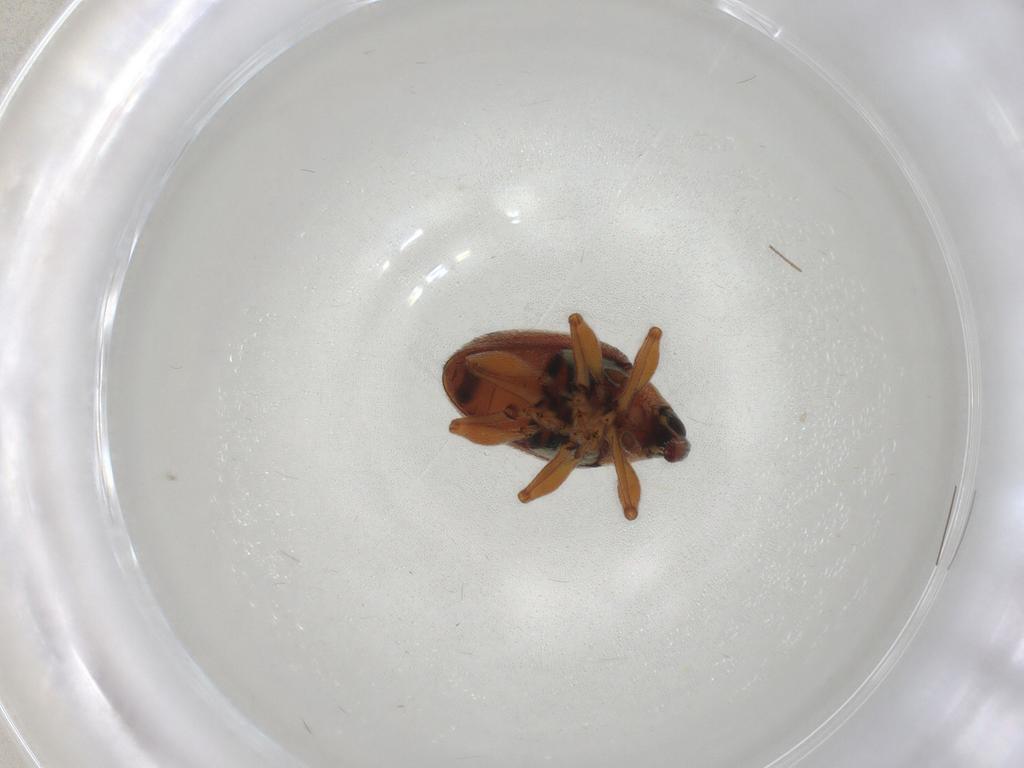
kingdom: Animalia
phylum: Arthropoda
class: Insecta
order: Coleoptera
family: Brentidae
